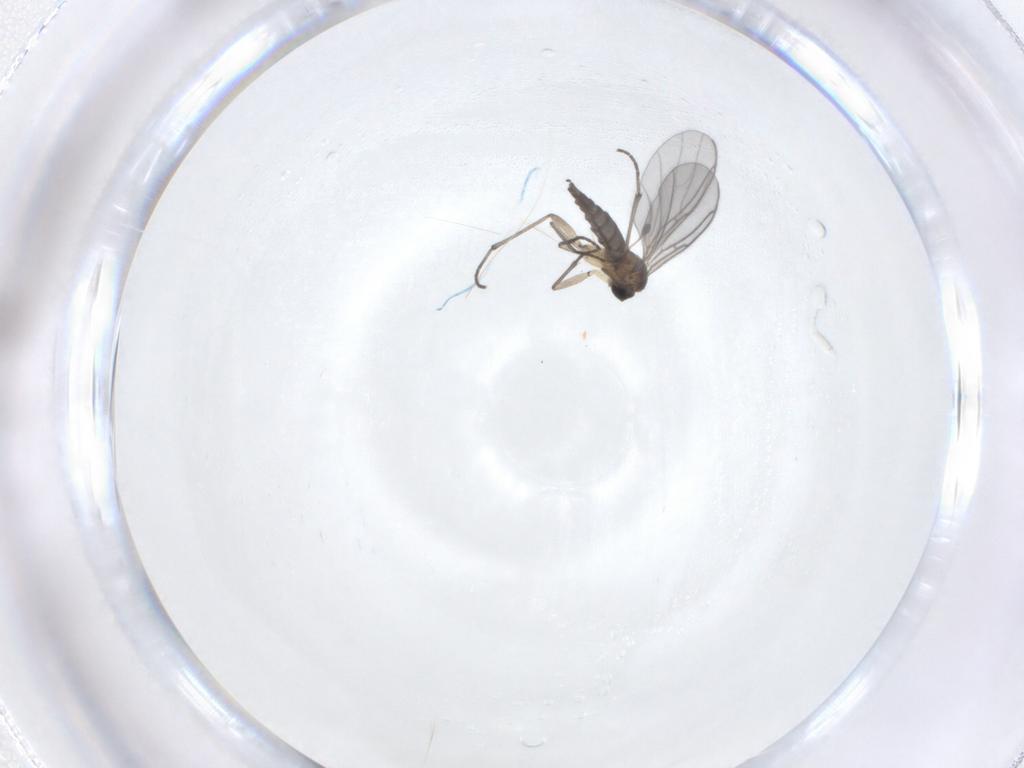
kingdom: Animalia
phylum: Arthropoda
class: Insecta
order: Diptera
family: Sciaridae
